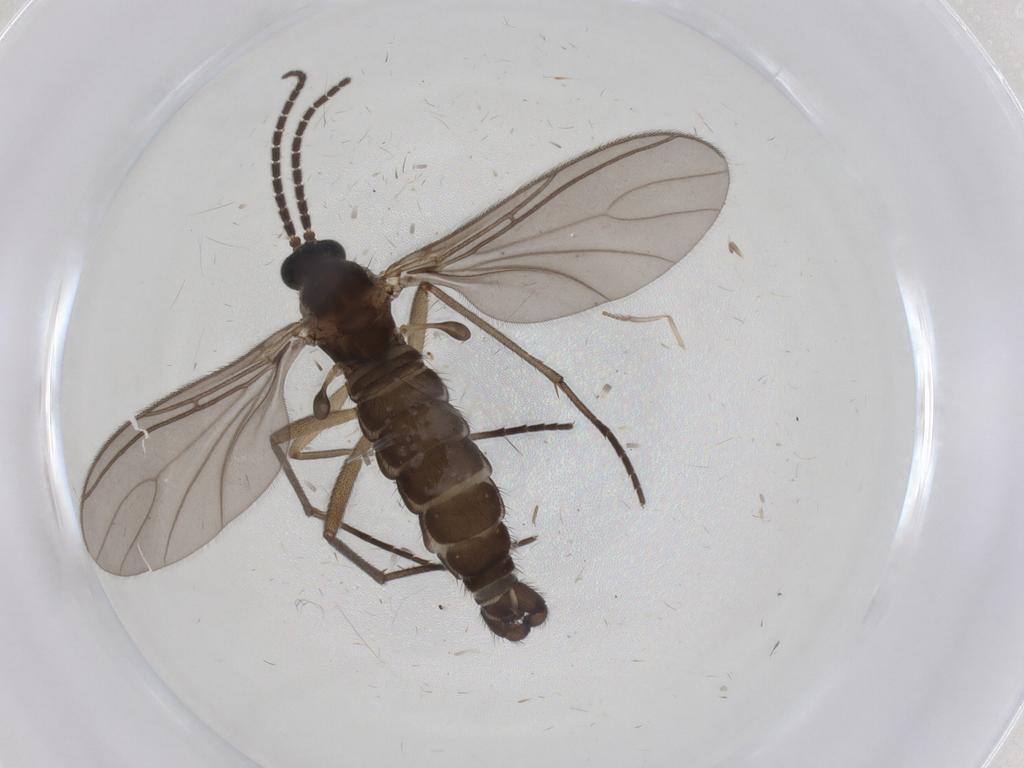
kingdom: Animalia
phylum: Arthropoda
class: Insecta
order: Diptera
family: Sciaridae
